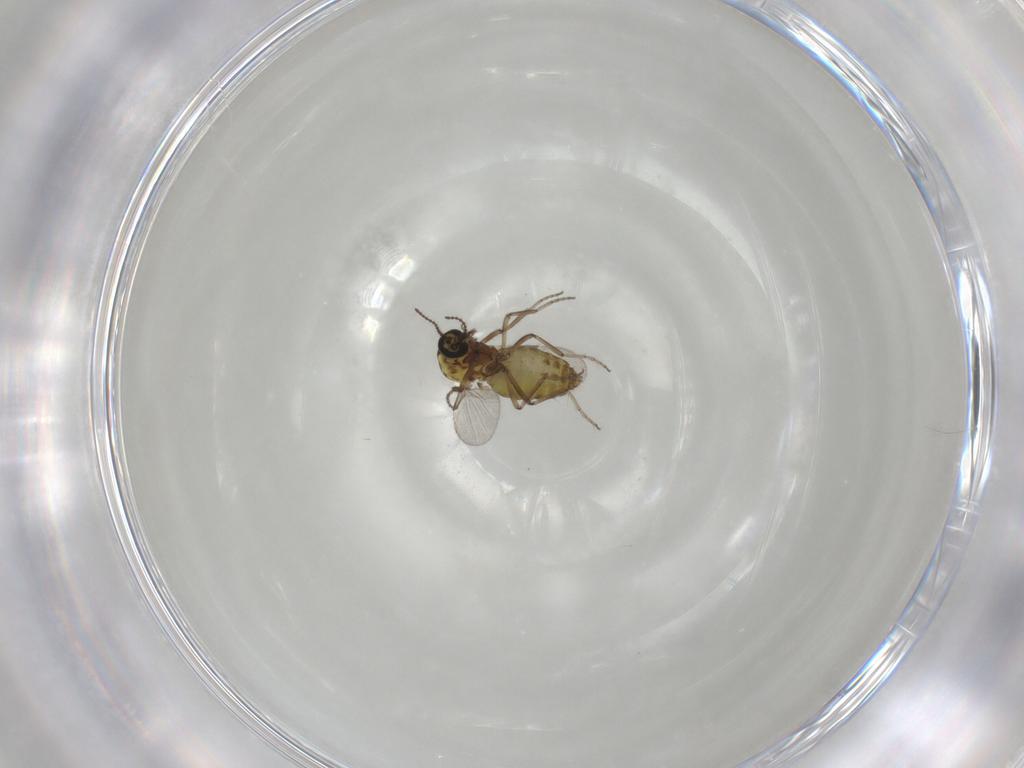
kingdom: Animalia
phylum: Arthropoda
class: Insecta
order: Diptera
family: Ceratopogonidae
